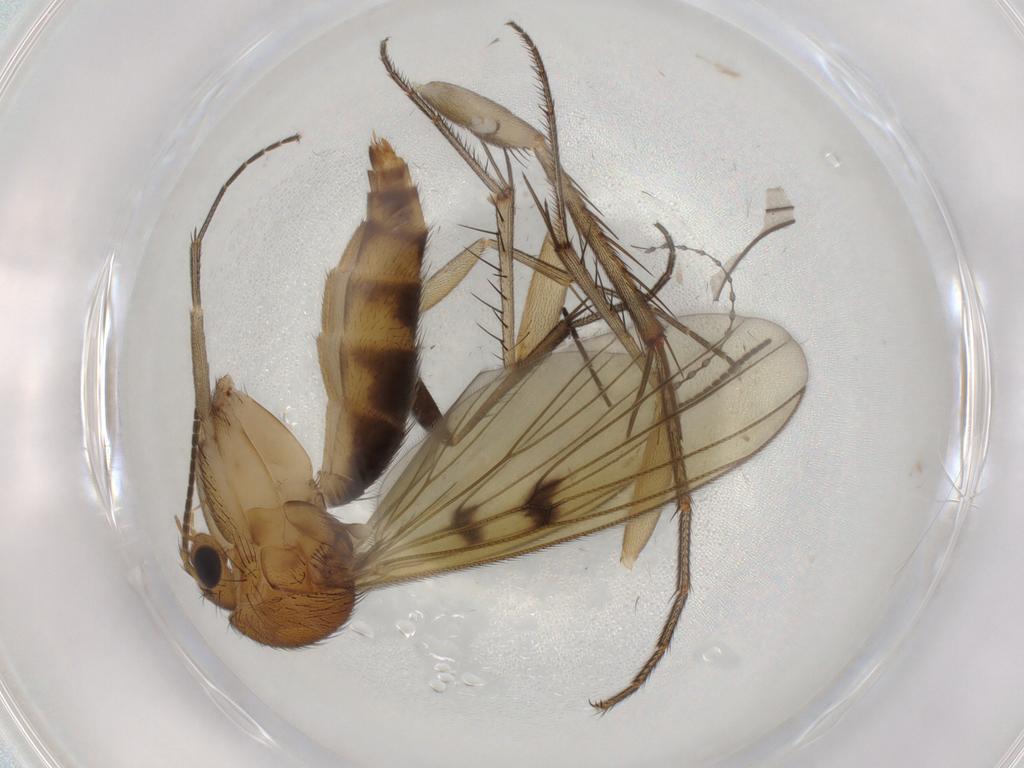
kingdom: Animalia
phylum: Arthropoda
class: Insecta
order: Diptera
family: Mycetophilidae
